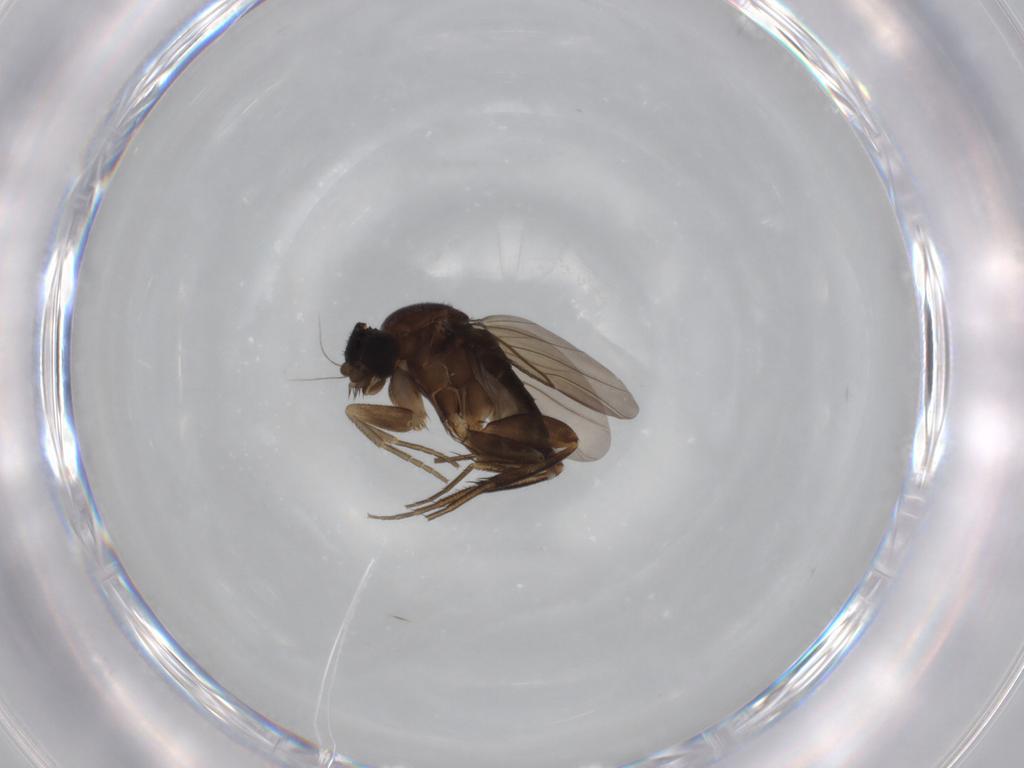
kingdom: Animalia
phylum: Arthropoda
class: Insecta
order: Diptera
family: Phoridae
